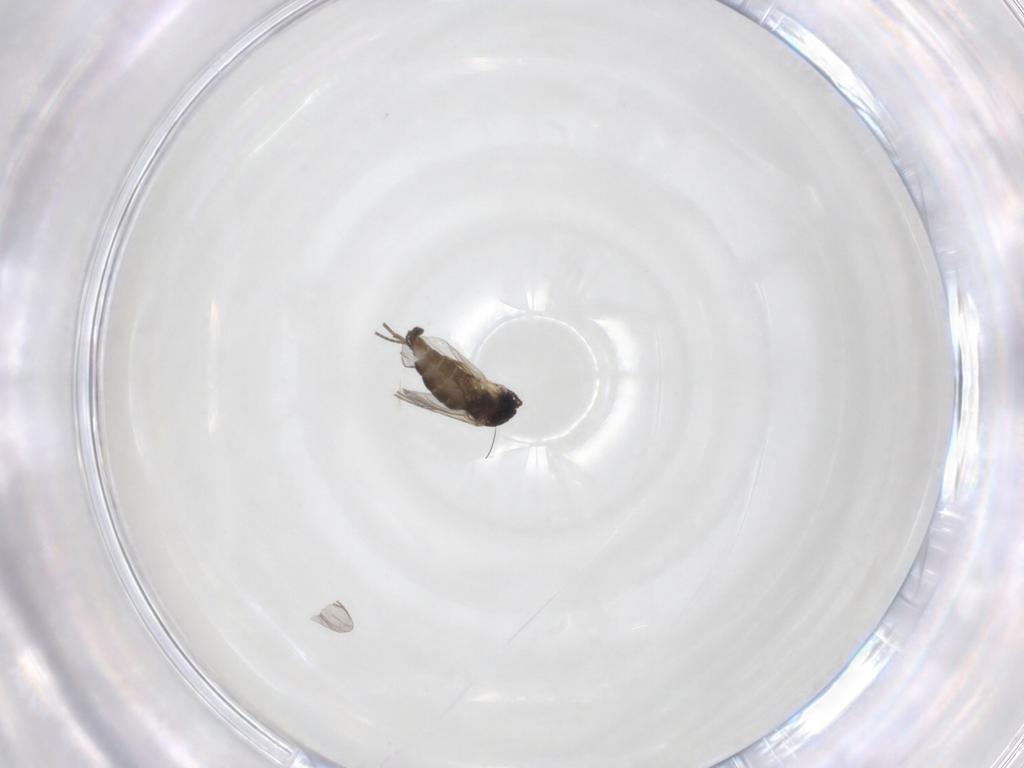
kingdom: Animalia
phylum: Arthropoda
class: Insecta
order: Diptera
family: Sciaridae
